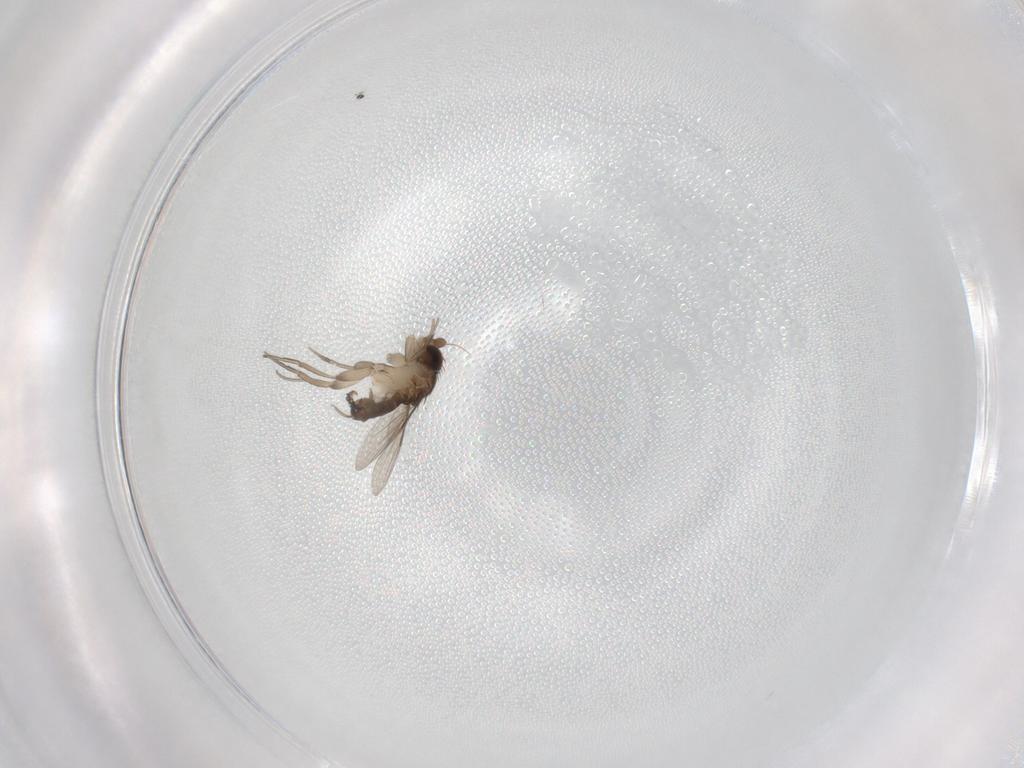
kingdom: Animalia
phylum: Arthropoda
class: Insecta
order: Diptera
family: Phoridae
